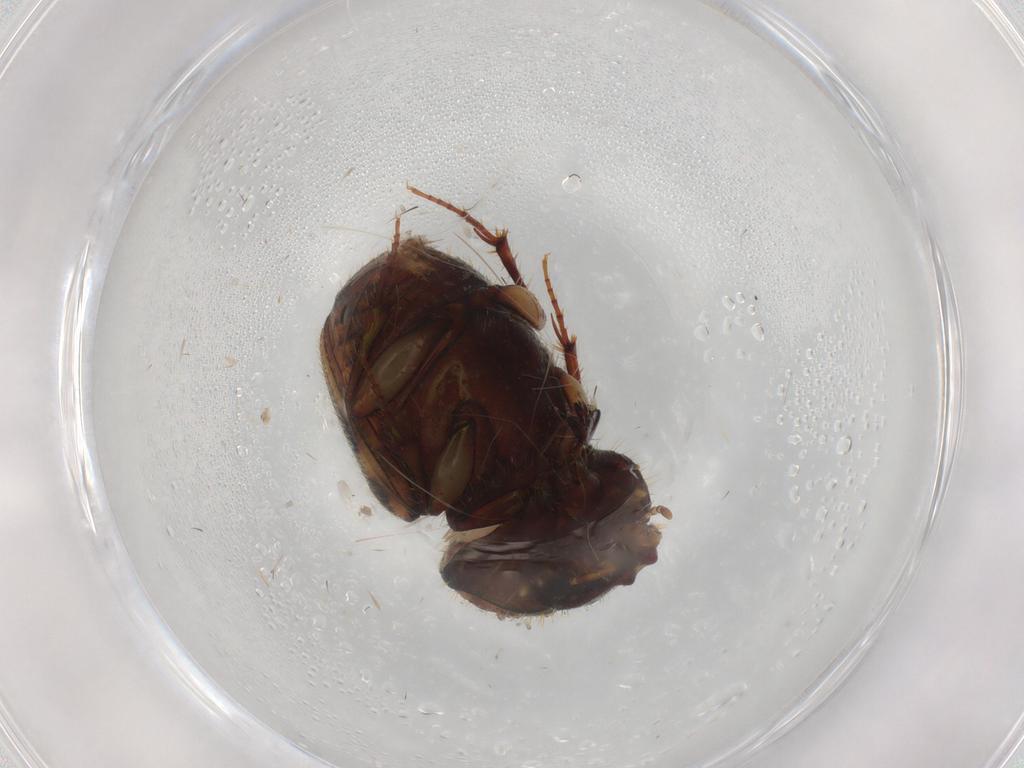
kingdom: Animalia
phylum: Arthropoda
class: Insecta
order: Coleoptera
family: Scarabaeidae
